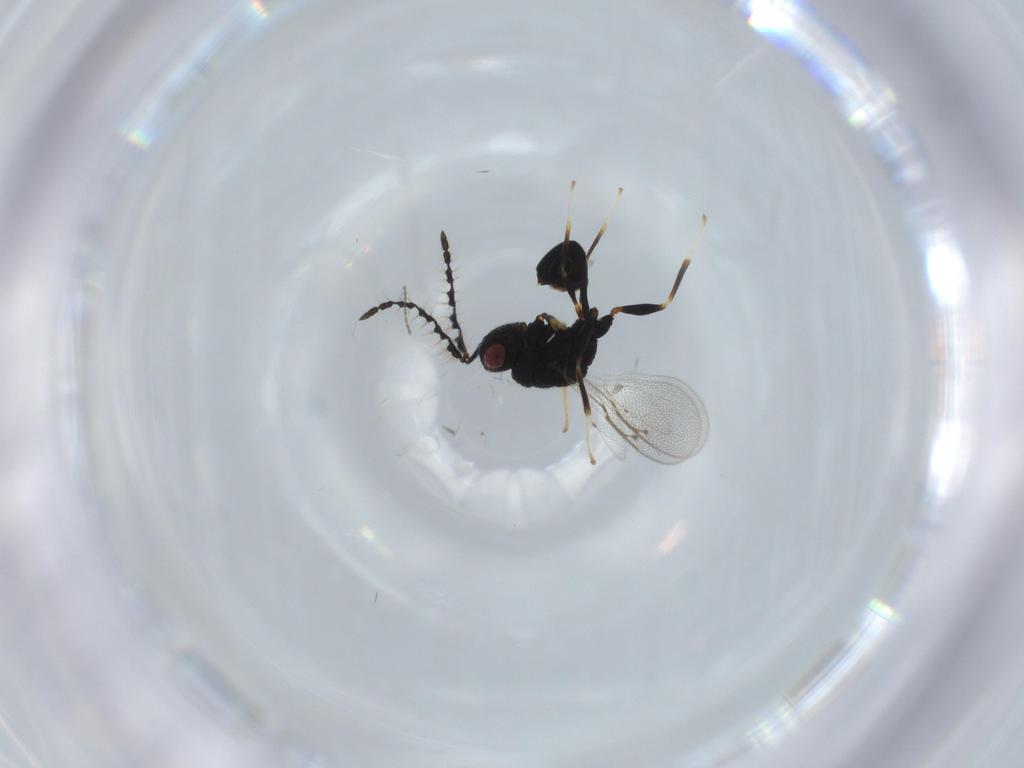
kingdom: Animalia
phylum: Arthropoda
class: Insecta
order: Hymenoptera
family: Eurytomidae
